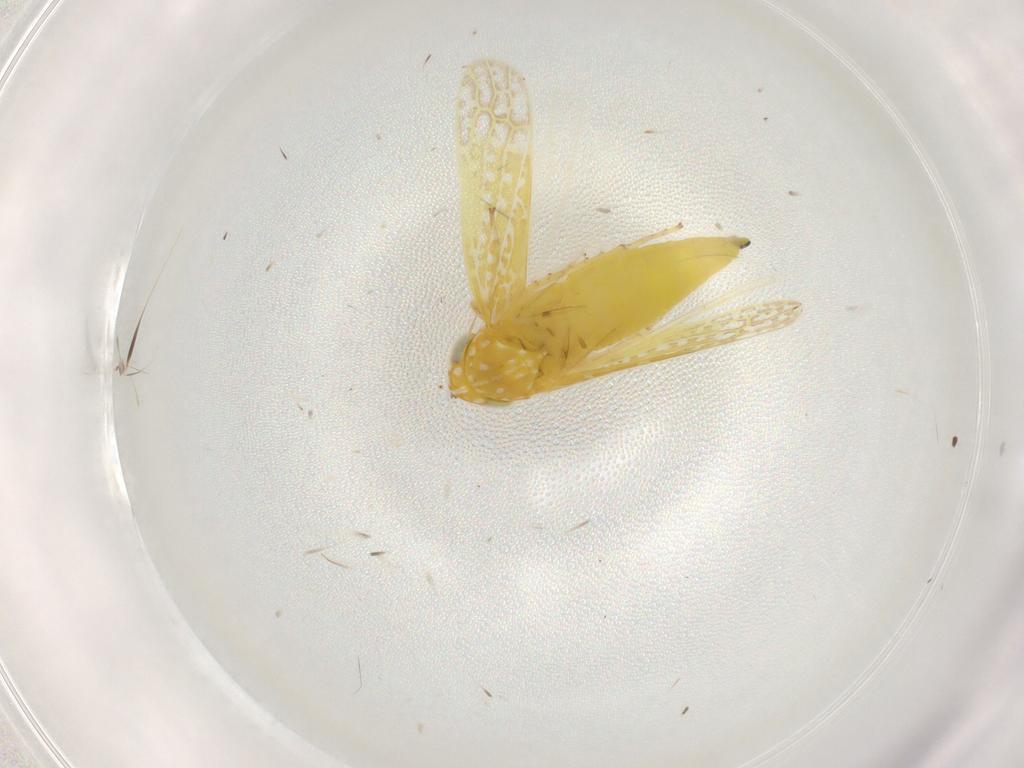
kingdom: Animalia
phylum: Arthropoda
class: Insecta
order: Hemiptera
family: Cicadellidae
